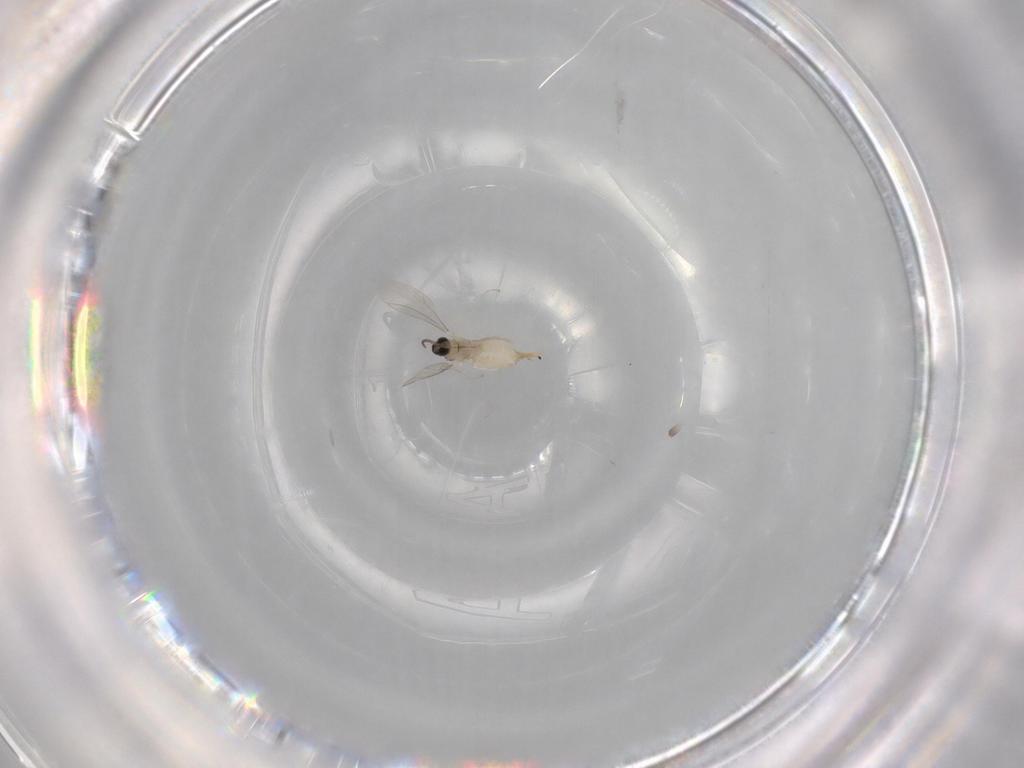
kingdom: Animalia
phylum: Arthropoda
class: Insecta
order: Diptera
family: Cecidomyiidae
